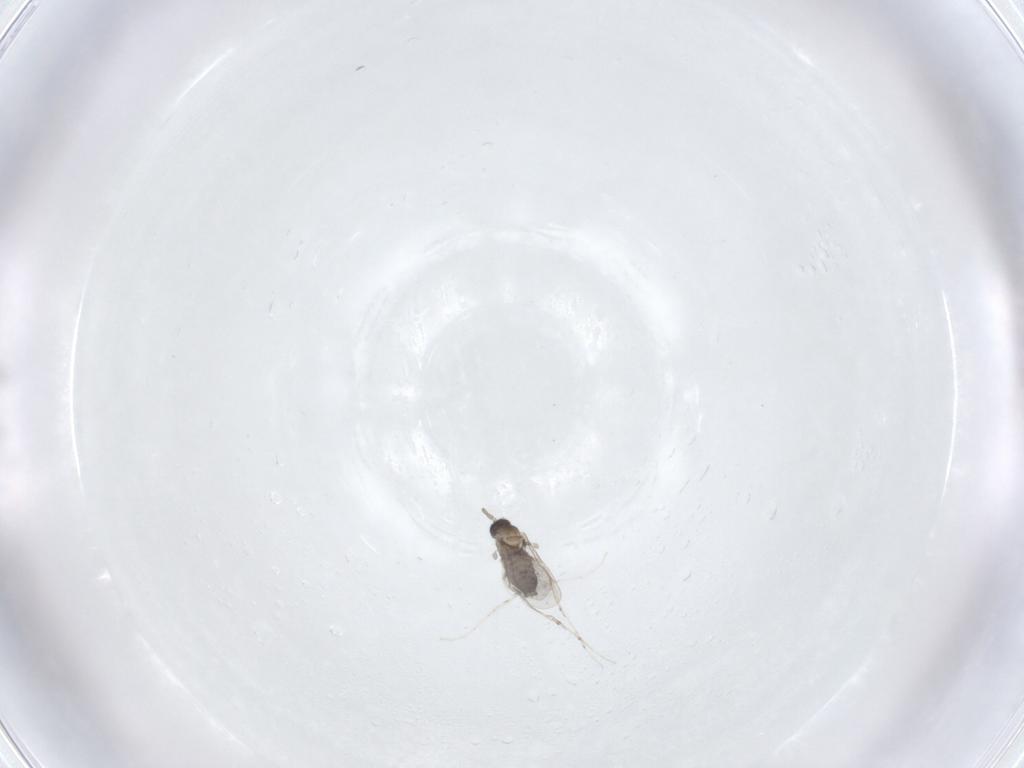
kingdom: Animalia
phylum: Arthropoda
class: Insecta
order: Diptera
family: Cecidomyiidae
